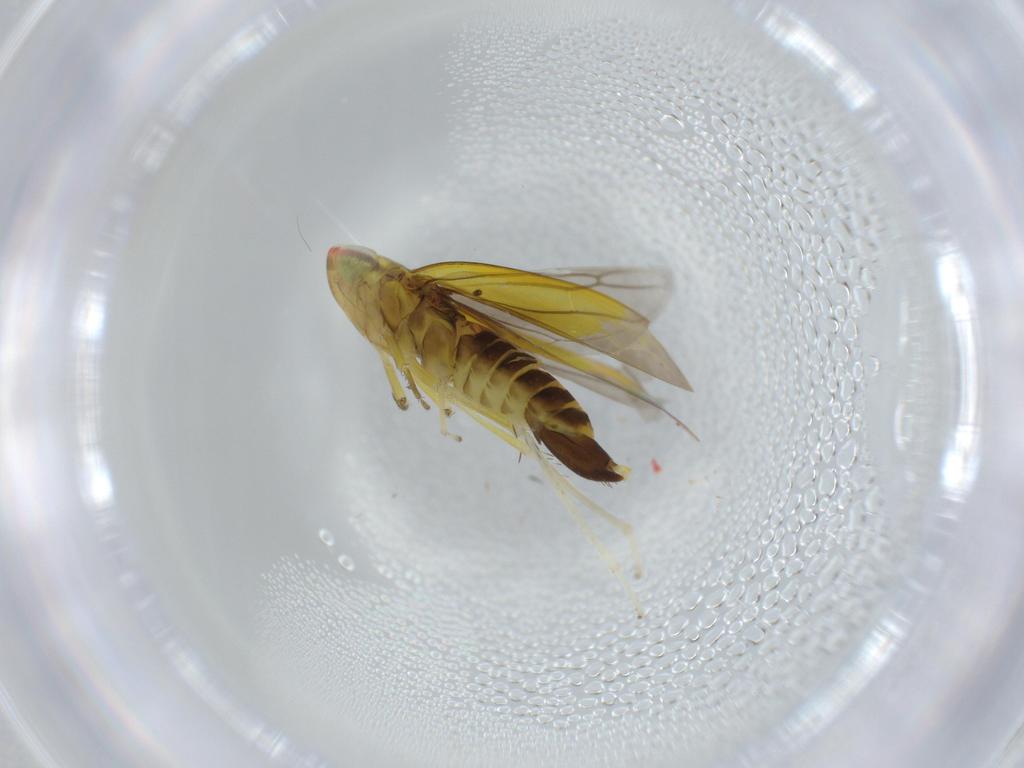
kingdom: Animalia
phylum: Arthropoda
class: Insecta
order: Hemiptera
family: Cicadellidae
